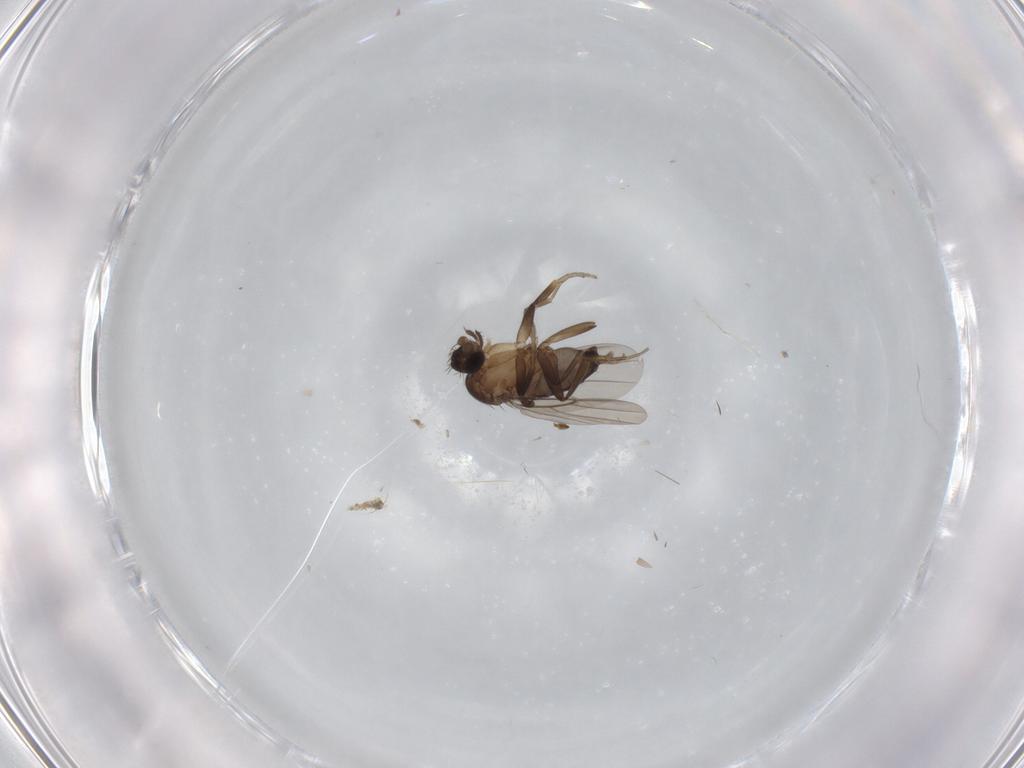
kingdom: Animalia
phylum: Arthropoda
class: Insecta
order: Diptera
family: Phoridae
